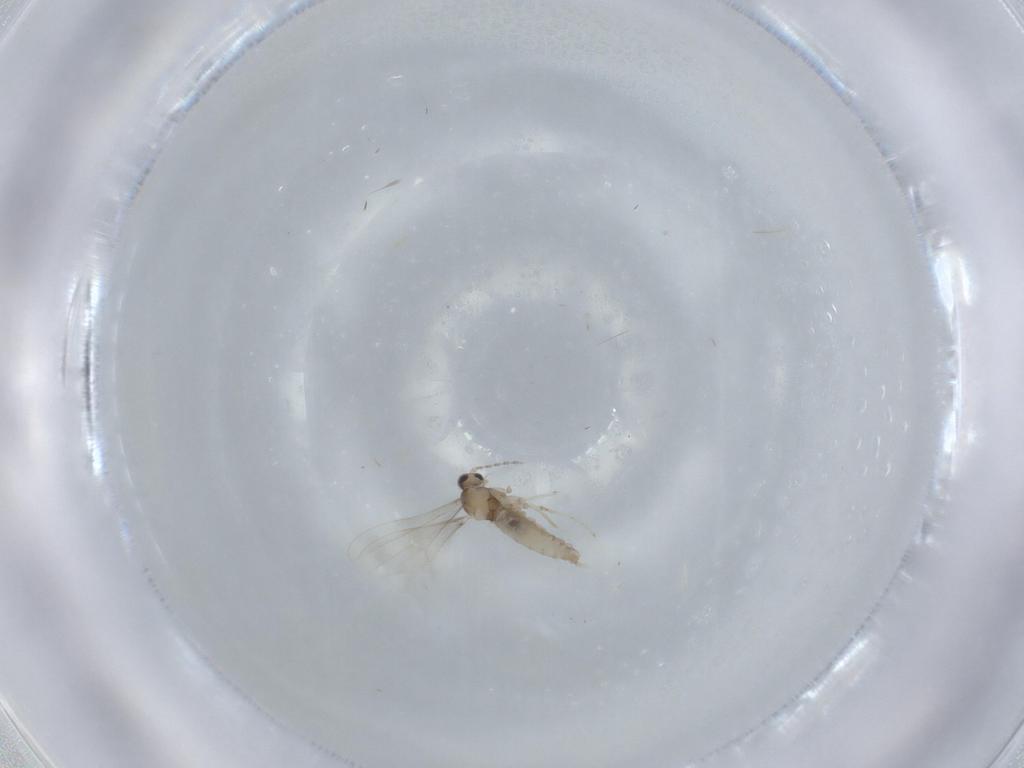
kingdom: Animalia
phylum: Arthropoda
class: Insecta
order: Diptera
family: Cecidomyiidae
